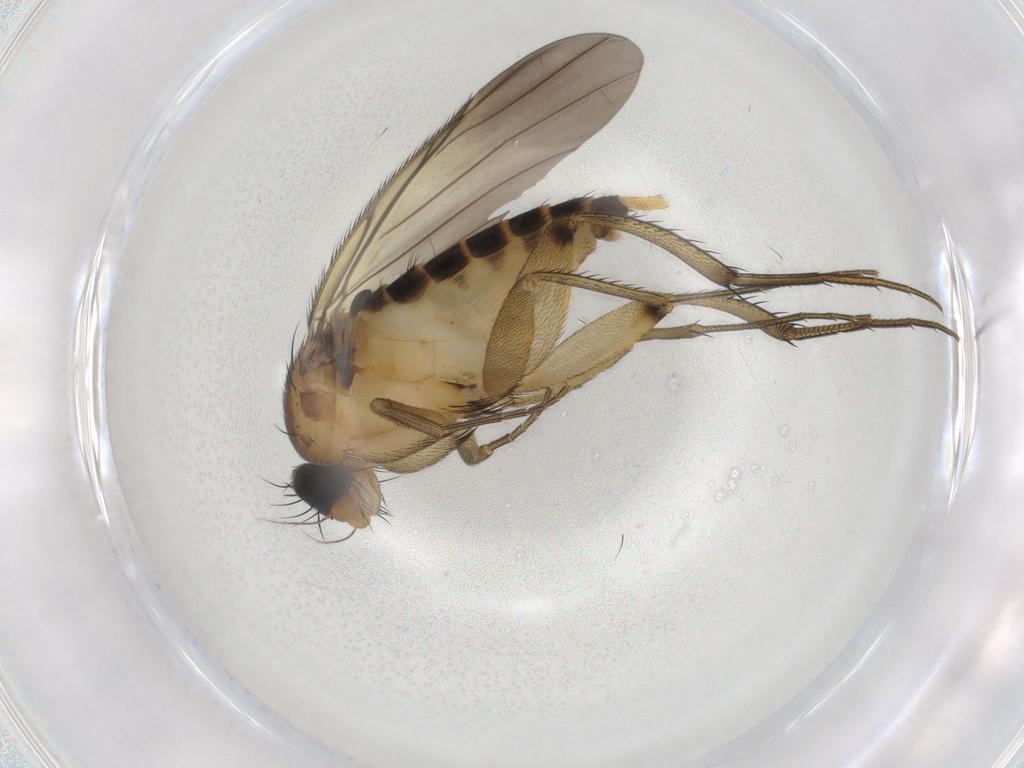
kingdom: Animalia
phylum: Arthropoda
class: Insecta
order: Diptera
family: Phoridae
